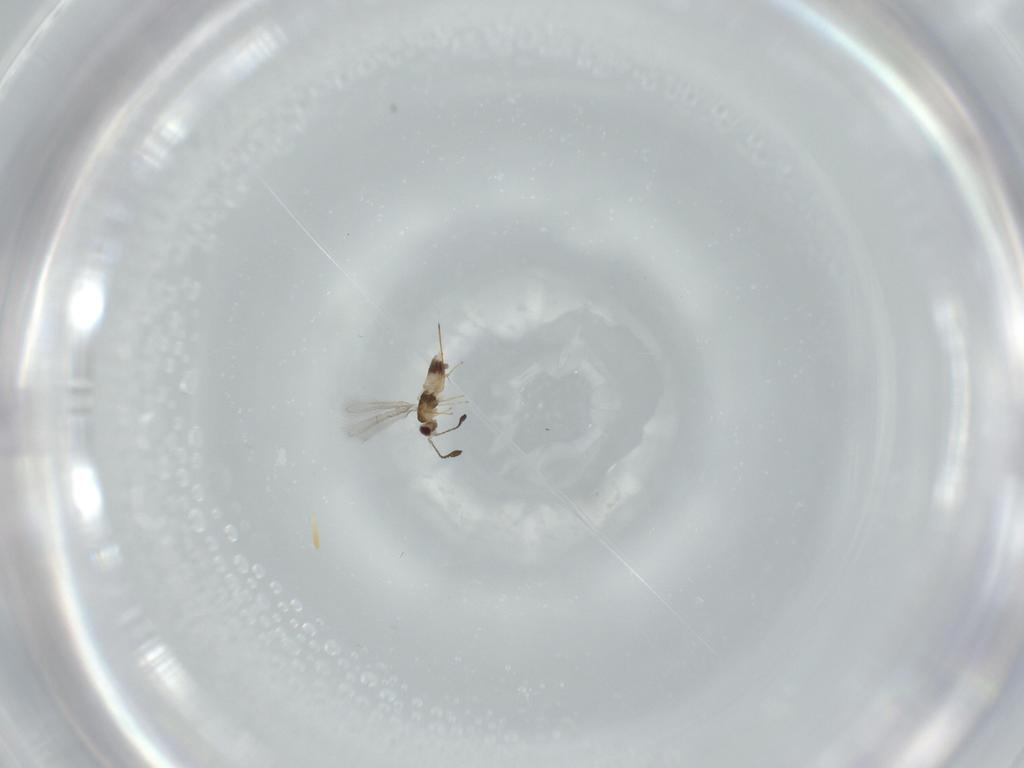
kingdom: Animalia
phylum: Arthropoda
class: Insecta
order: Hymenoptera
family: Mymaridae
